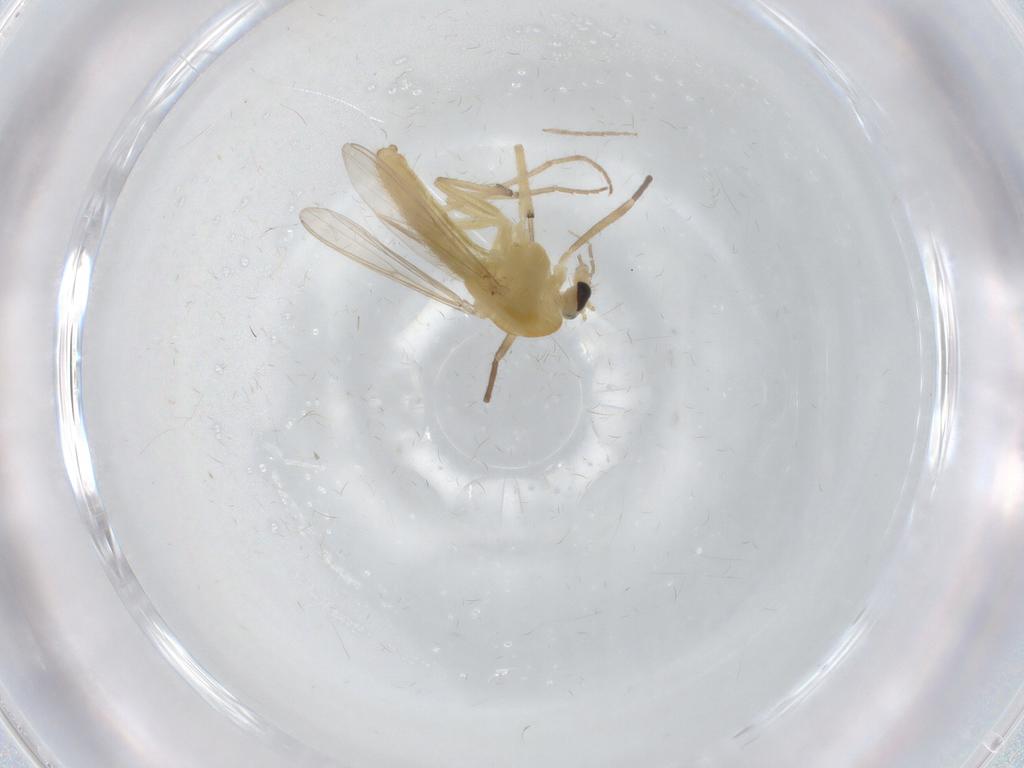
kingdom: Animalia
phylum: Arthropoda
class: Insecta
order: Diptera
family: Chironomidae
